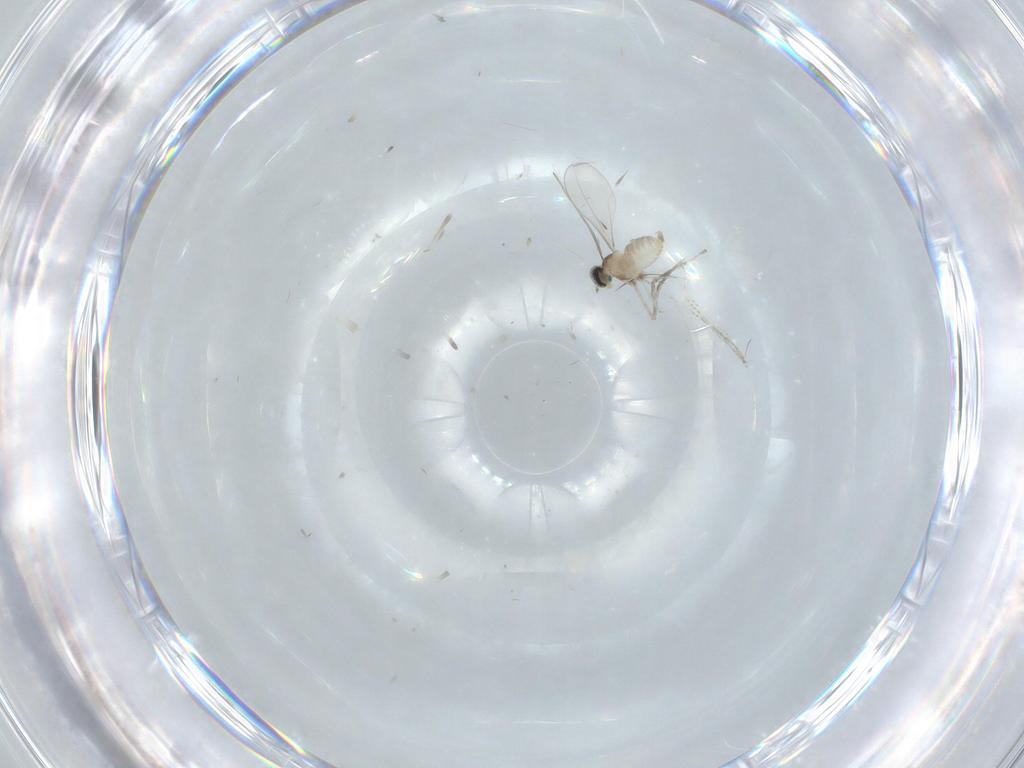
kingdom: Animalia
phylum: Arthropoda
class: Insecta
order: Diptera
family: Cecidomyiidae
